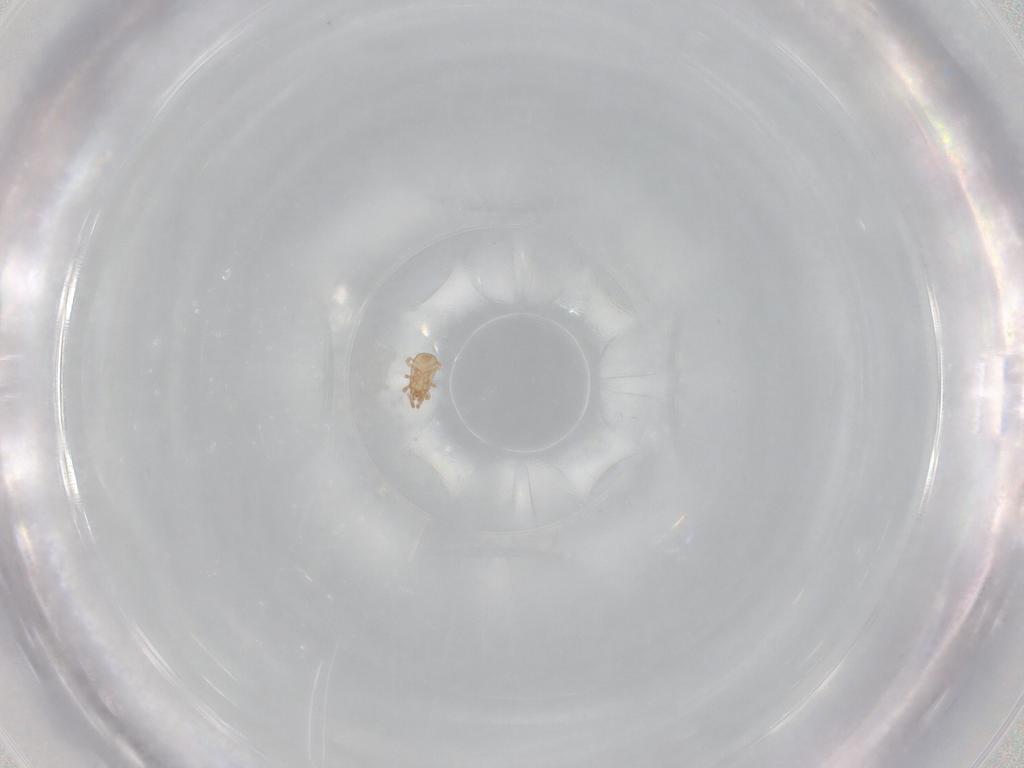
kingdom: Animalia
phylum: Arthropoda
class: Arachnida
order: Mesostigmata
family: Ascidae
